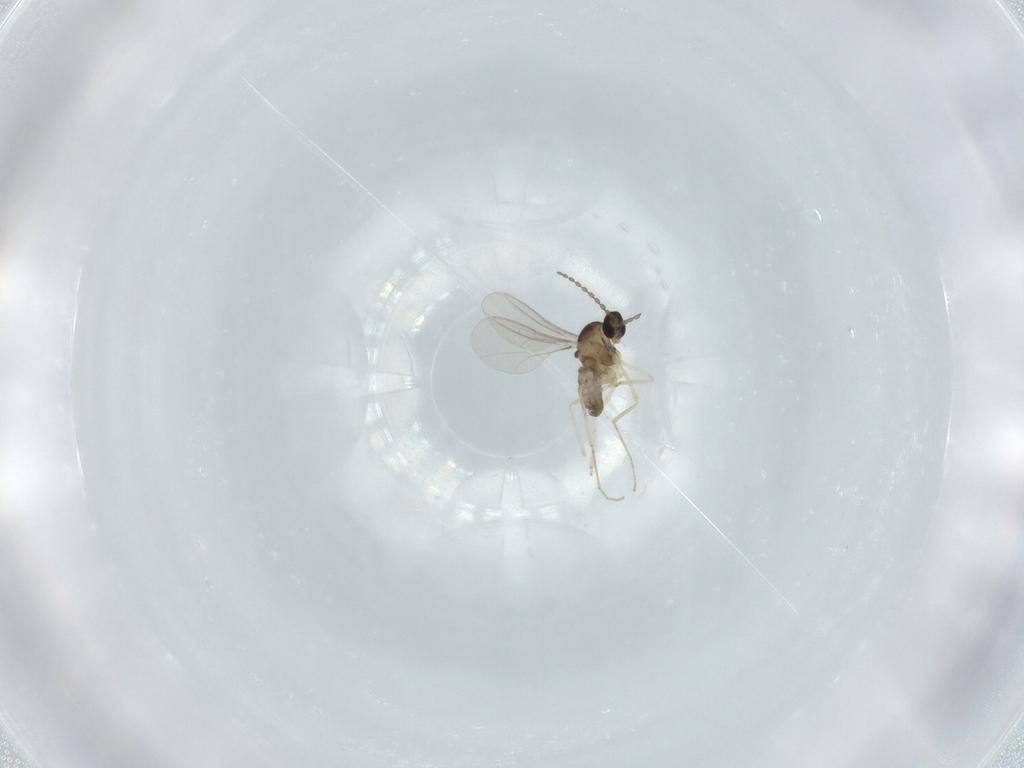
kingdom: Animalia
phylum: Arthropoda
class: Insecta
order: Diptera
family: Cecidomyiidae
